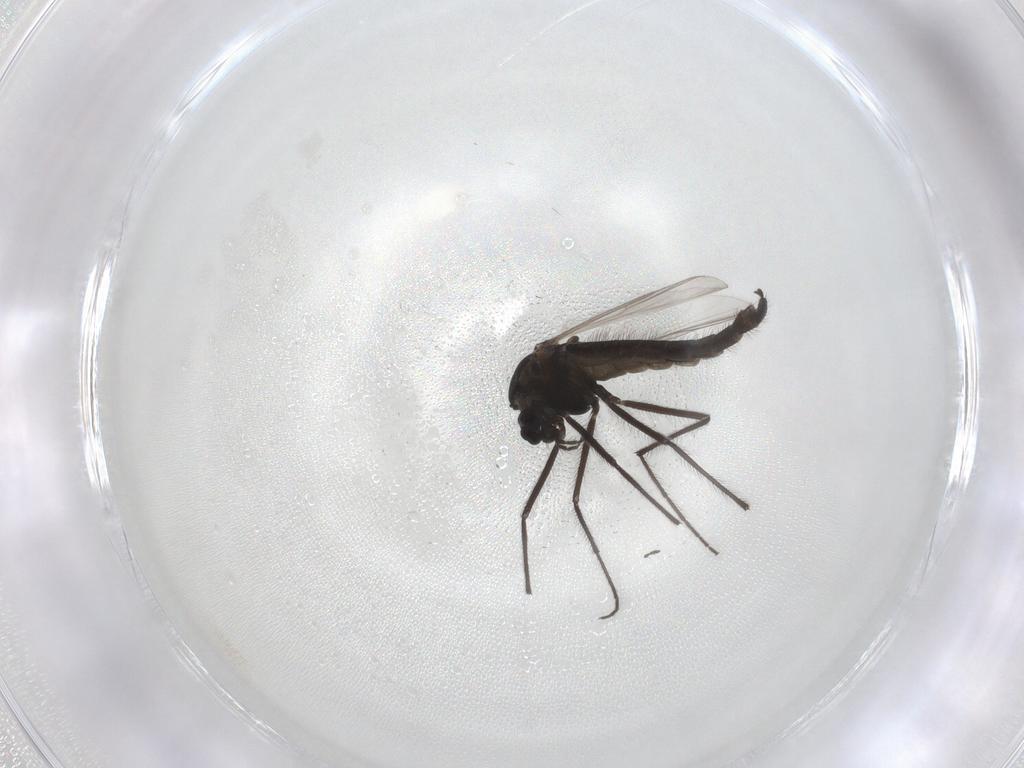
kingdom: Animalia
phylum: Arthropoda
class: Insecta
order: Diptera
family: Chironomidae
